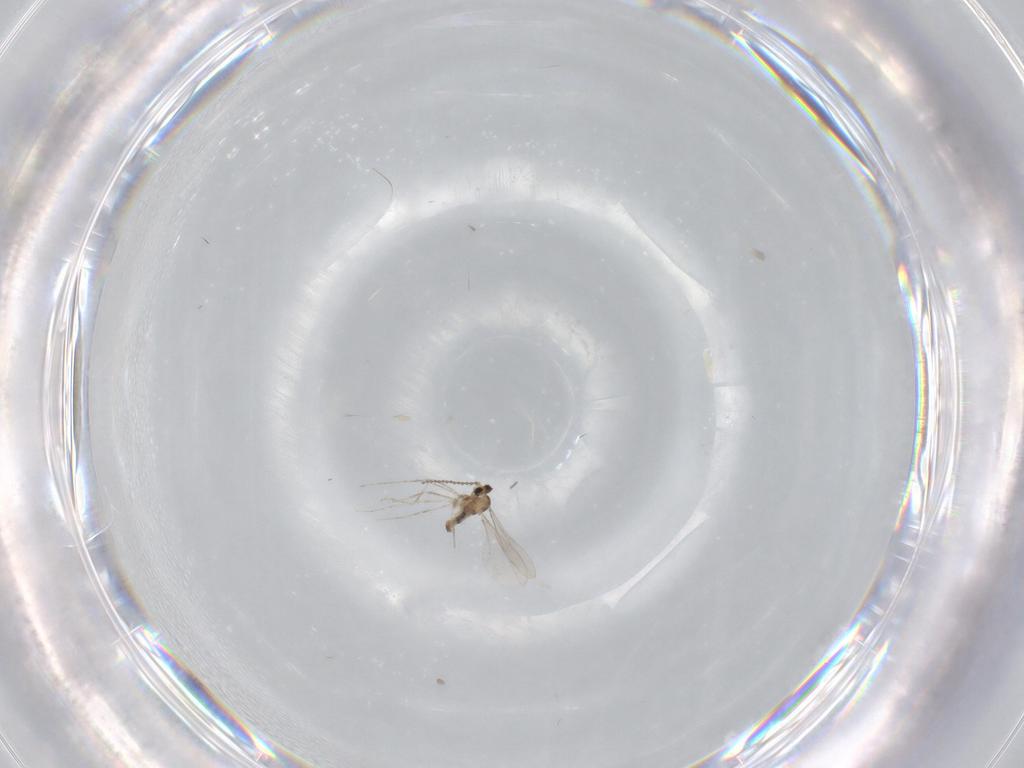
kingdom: Animalia
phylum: Arthropoda
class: Insecta
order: Diptera
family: Cecidomyiidae
